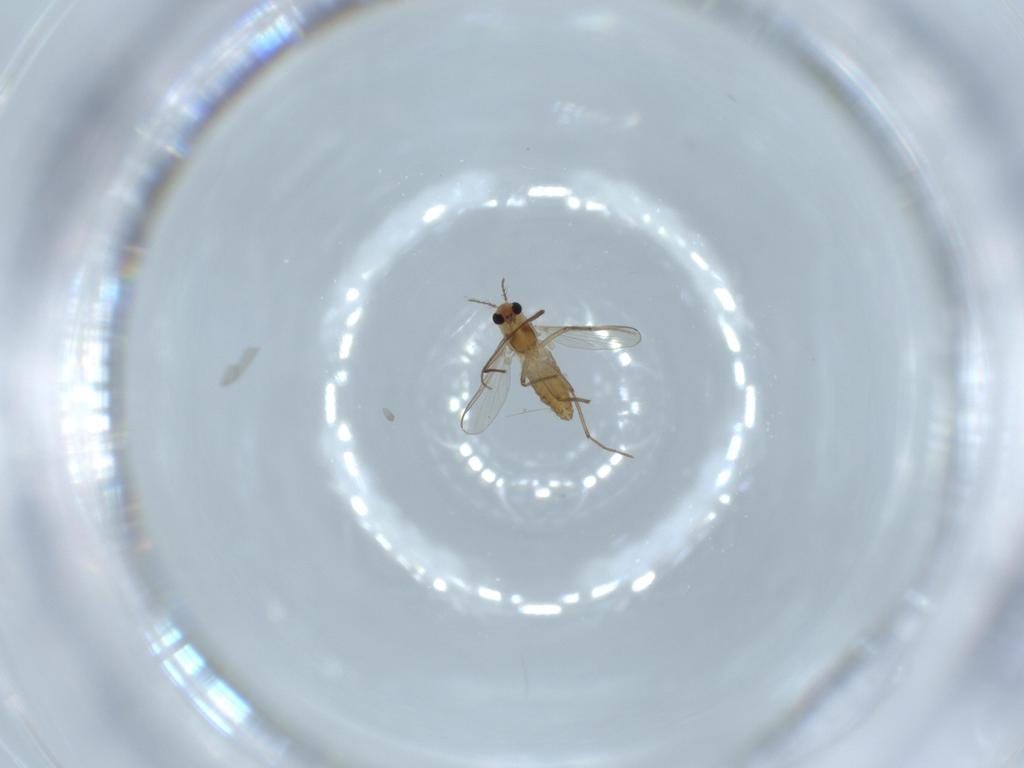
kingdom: Animalia
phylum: Arthropoda
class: Insecta
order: Diptera
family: Chironomidae
